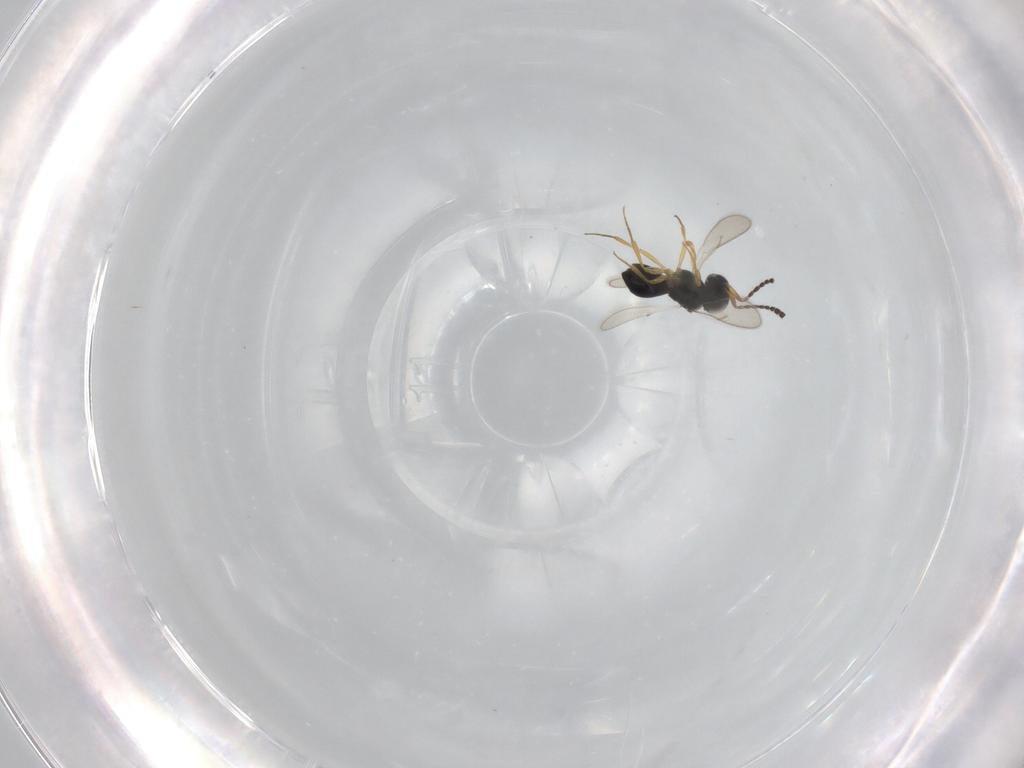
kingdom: Animalia
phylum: Arthropoda
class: Insecta
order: Hymenoptera
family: Scelionidae
